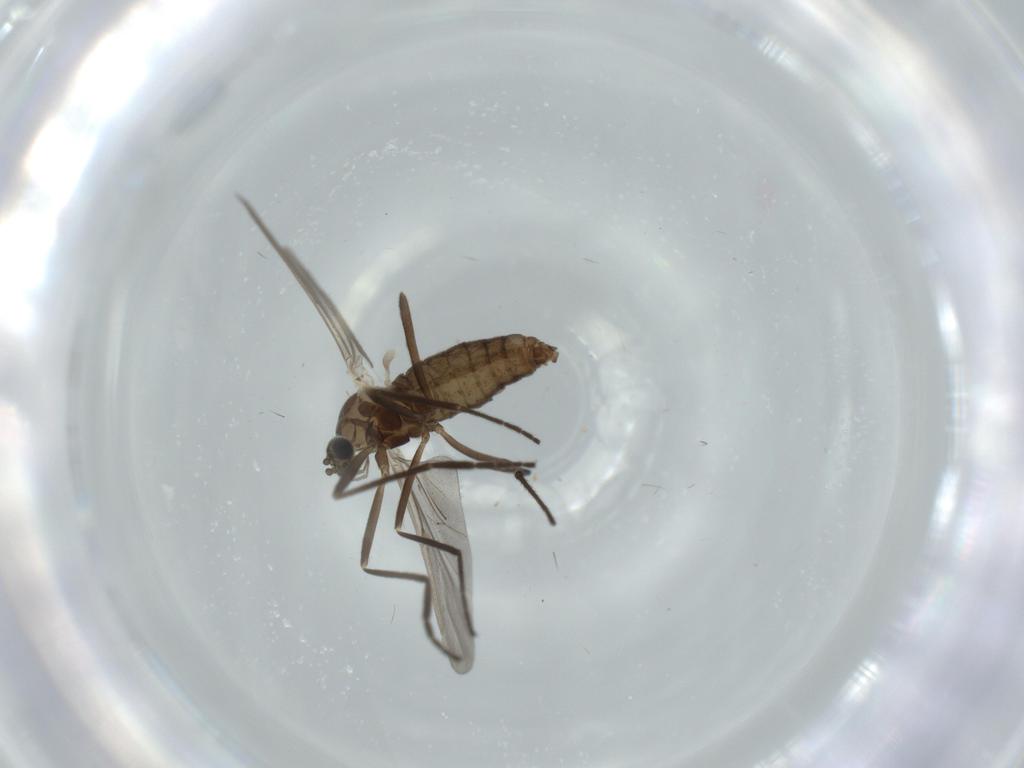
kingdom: Animalia
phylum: Arthropoda
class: Insecta
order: Diptera
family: Cecidomyiidae
